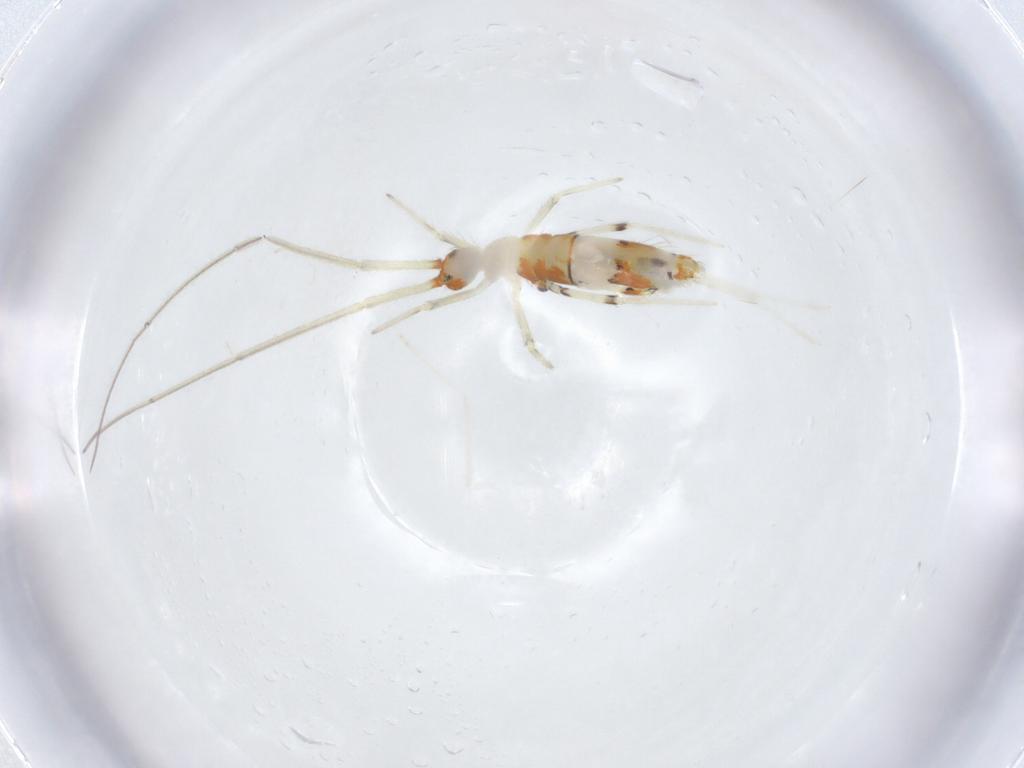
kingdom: Animalia
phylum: Arthropoda
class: Insecta
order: Diptera
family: Cecidomyiidae
